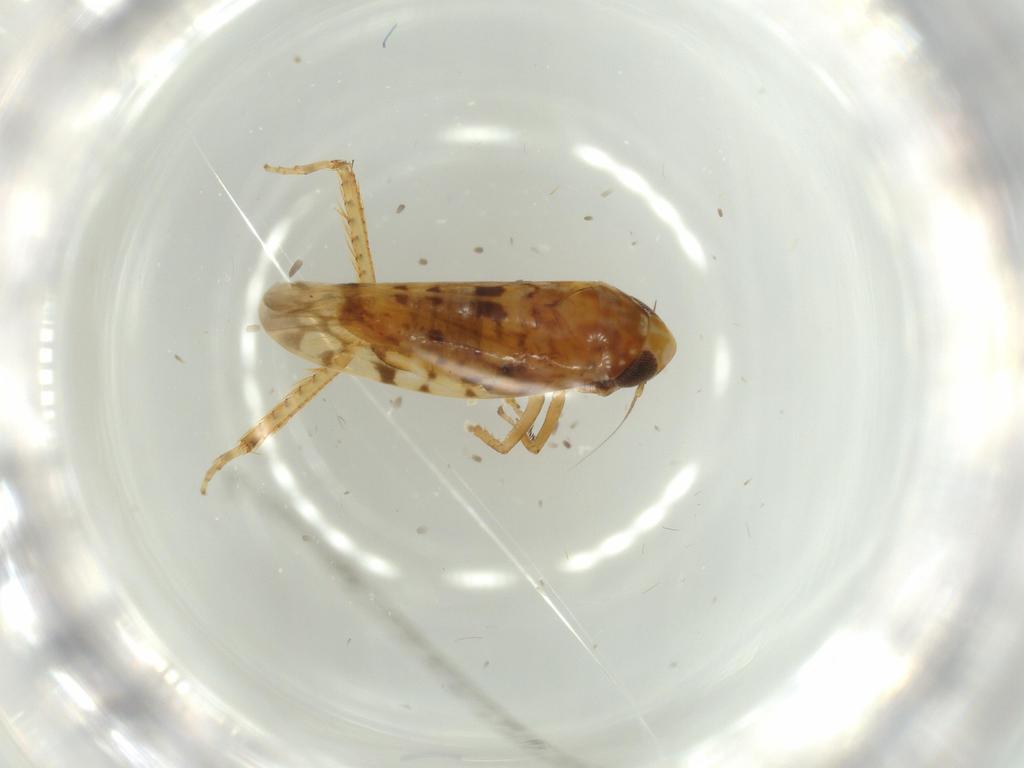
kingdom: Animalia
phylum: Arthropoda
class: Insecta
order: Hemiptera
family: Cicadellidae
